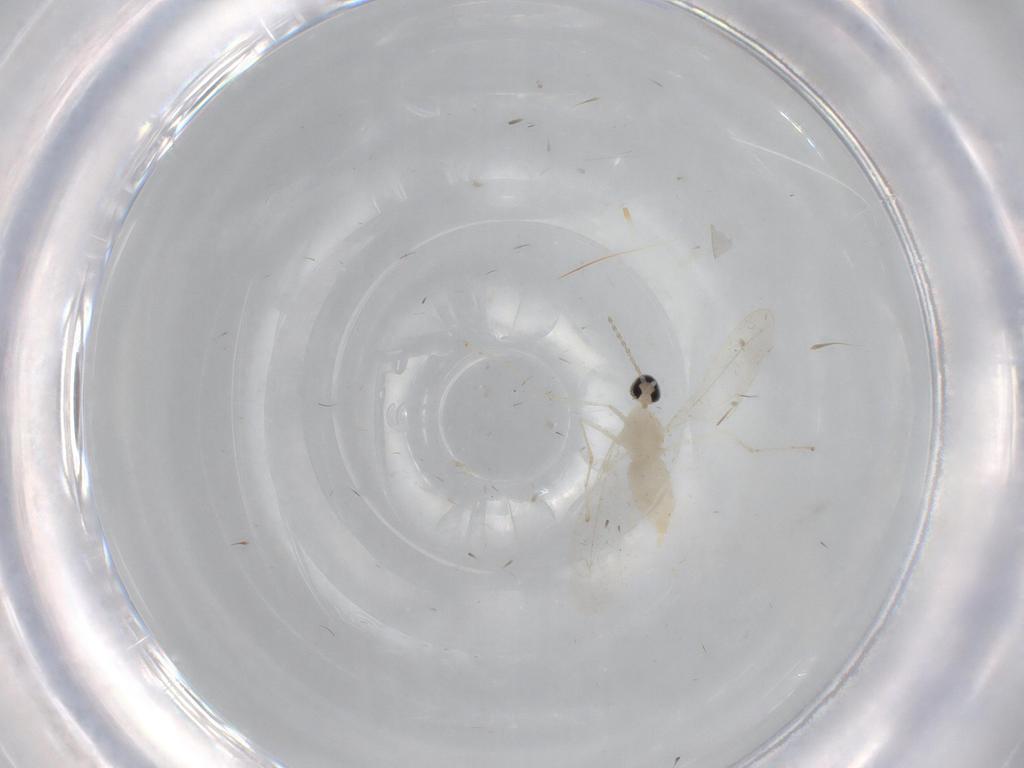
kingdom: Animalia
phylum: Arthropoda
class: Insecta
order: Diptera
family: Cecidomyiidae
